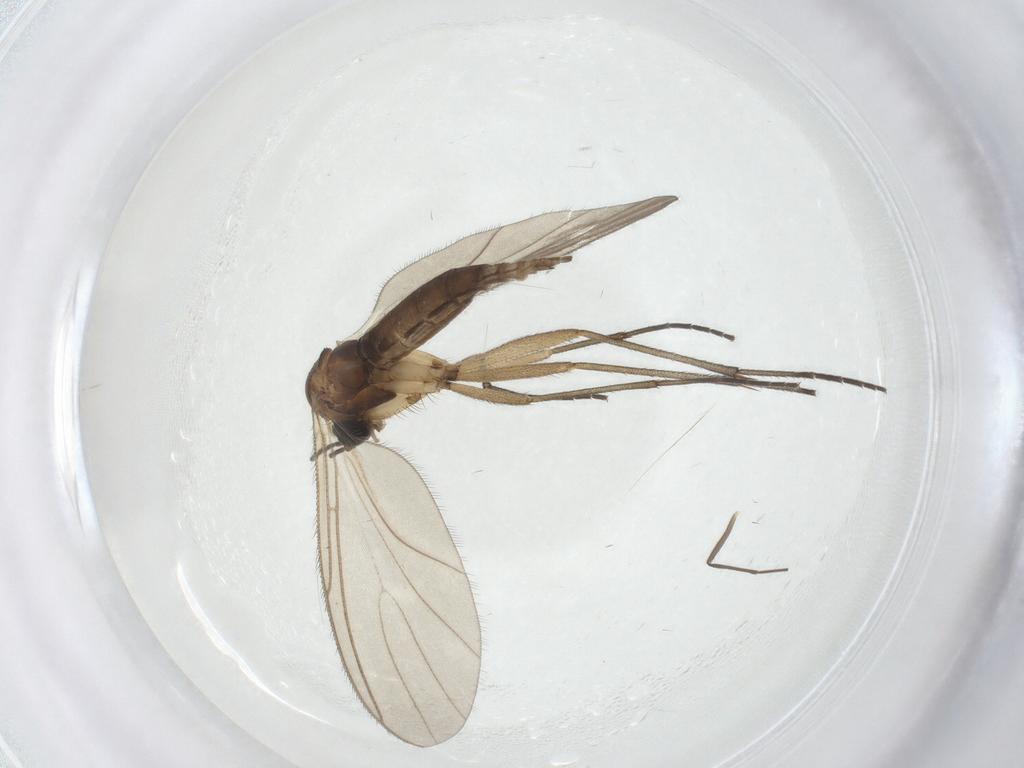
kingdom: Animalia
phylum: Arthropoda
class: Insecta
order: Diptera
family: Sciaridae
